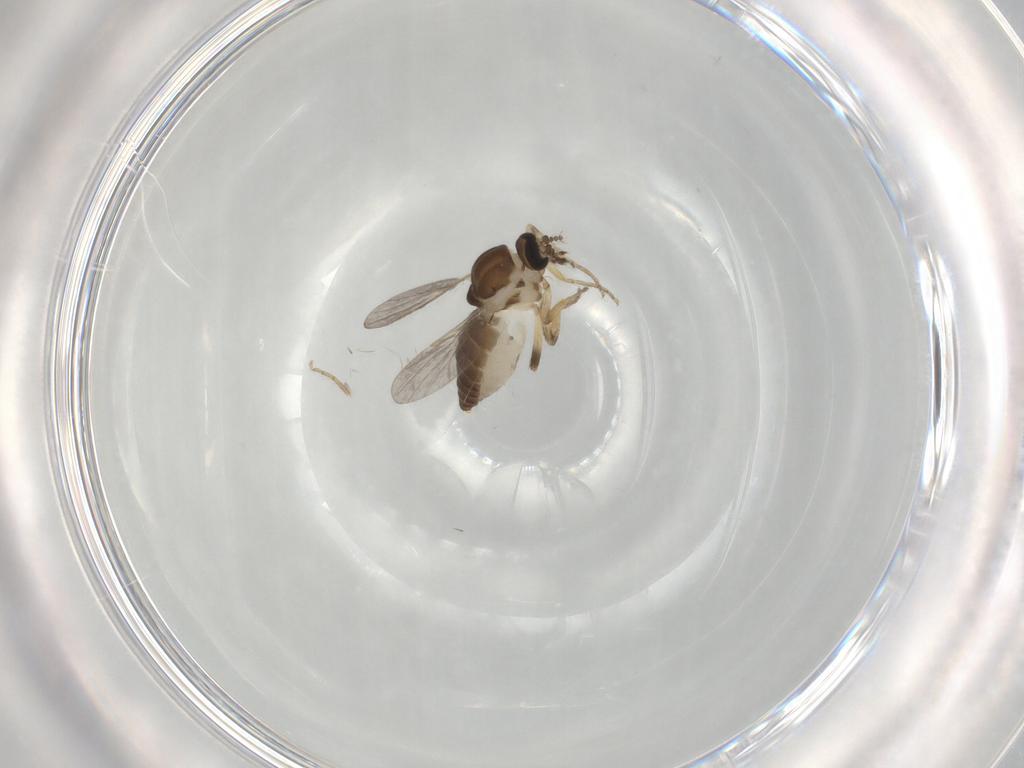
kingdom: Animalia
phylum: Arthropoda
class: Insecta
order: Diptera
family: Ceratopogonidae
